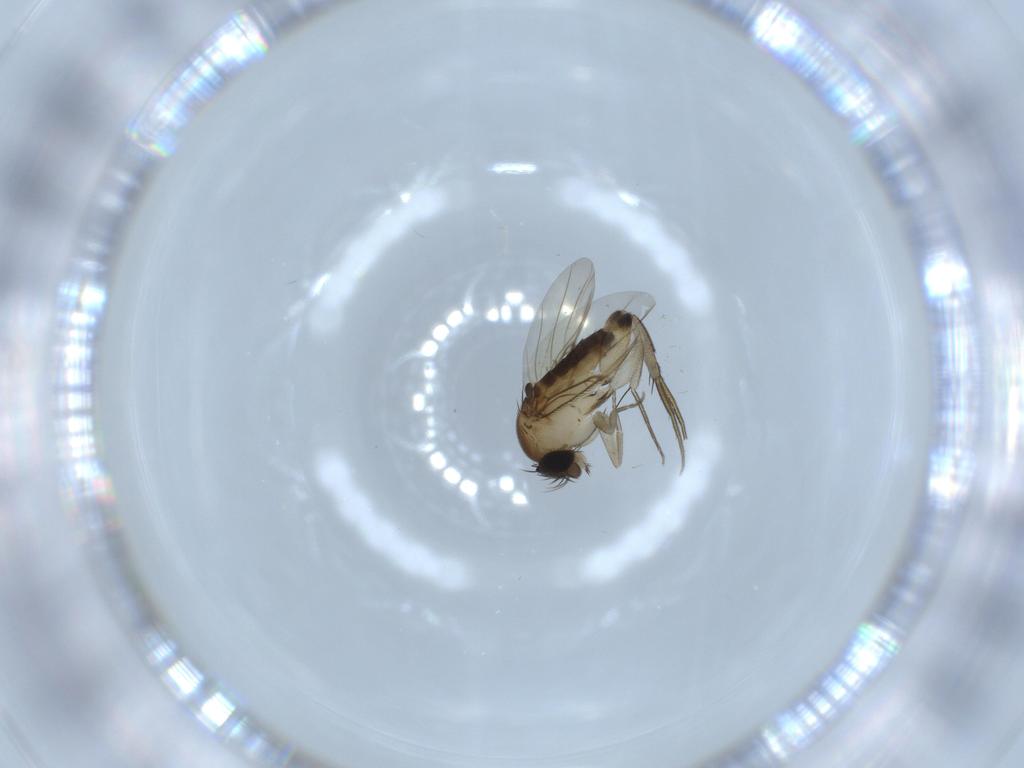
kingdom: Animalia
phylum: Arthropoda
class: Insecta
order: Diptera
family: Phoridae
